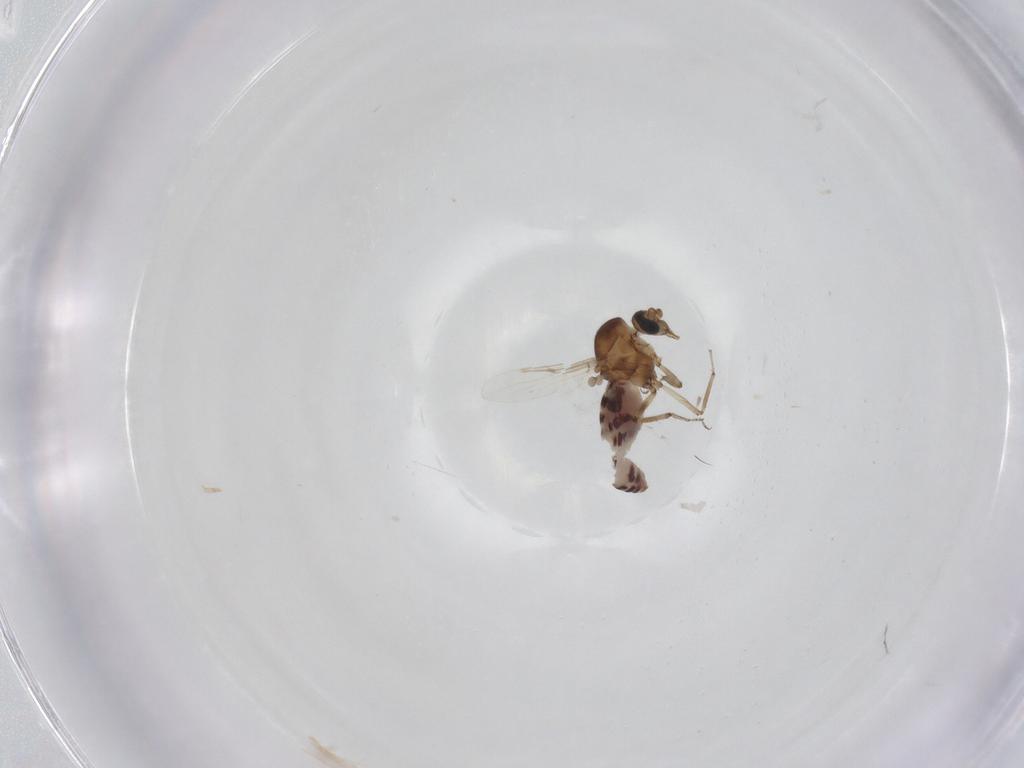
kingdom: Animalia
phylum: Arthropoda
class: Insecta
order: Diptera
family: Ceratopogonidae
